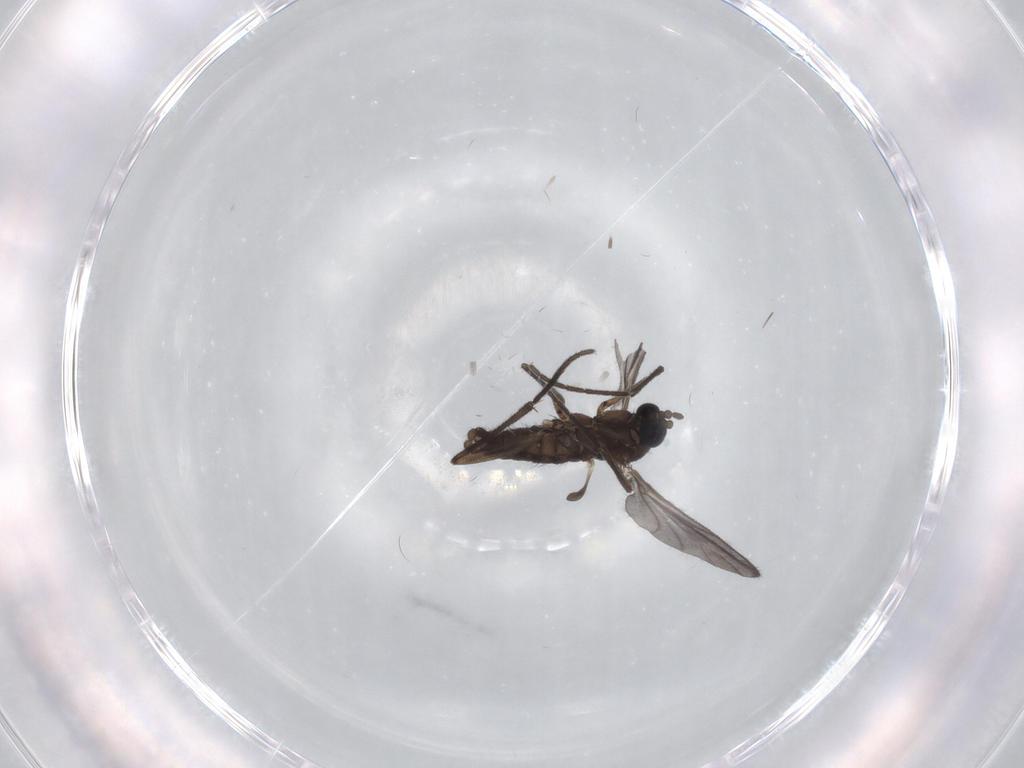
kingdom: Animalia
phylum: Arthropoda
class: Insecta
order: Diptera
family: Sciaridae
